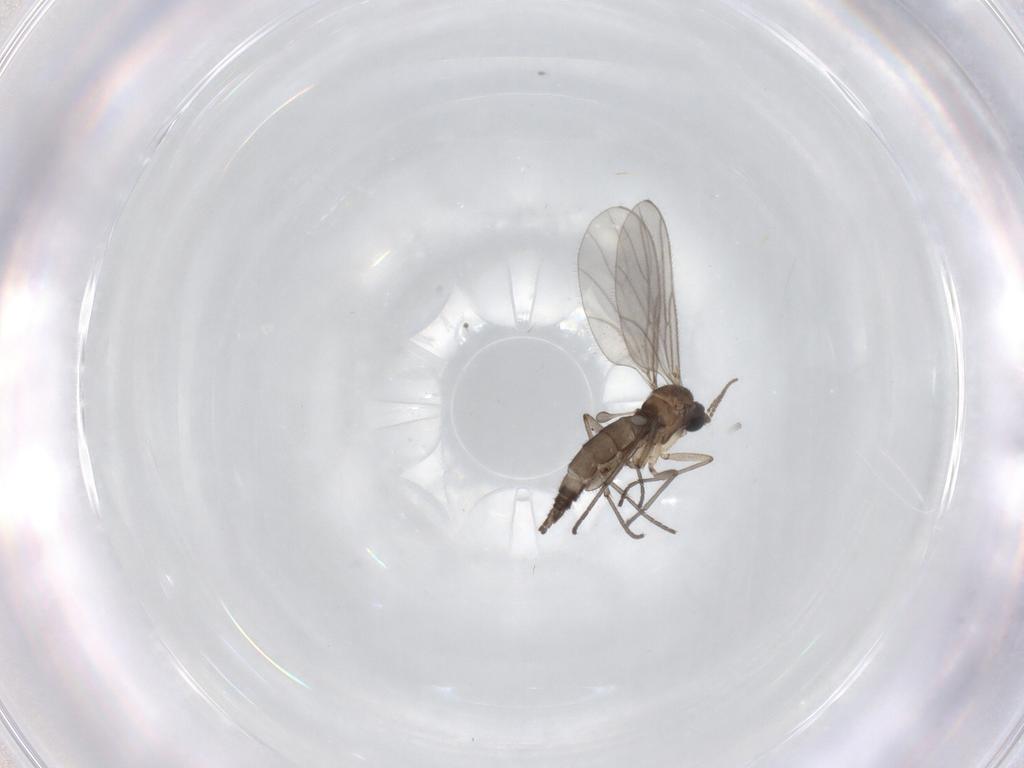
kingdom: Animalia
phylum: Arthropoda
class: Insecta
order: Diptera
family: Sciaridae
